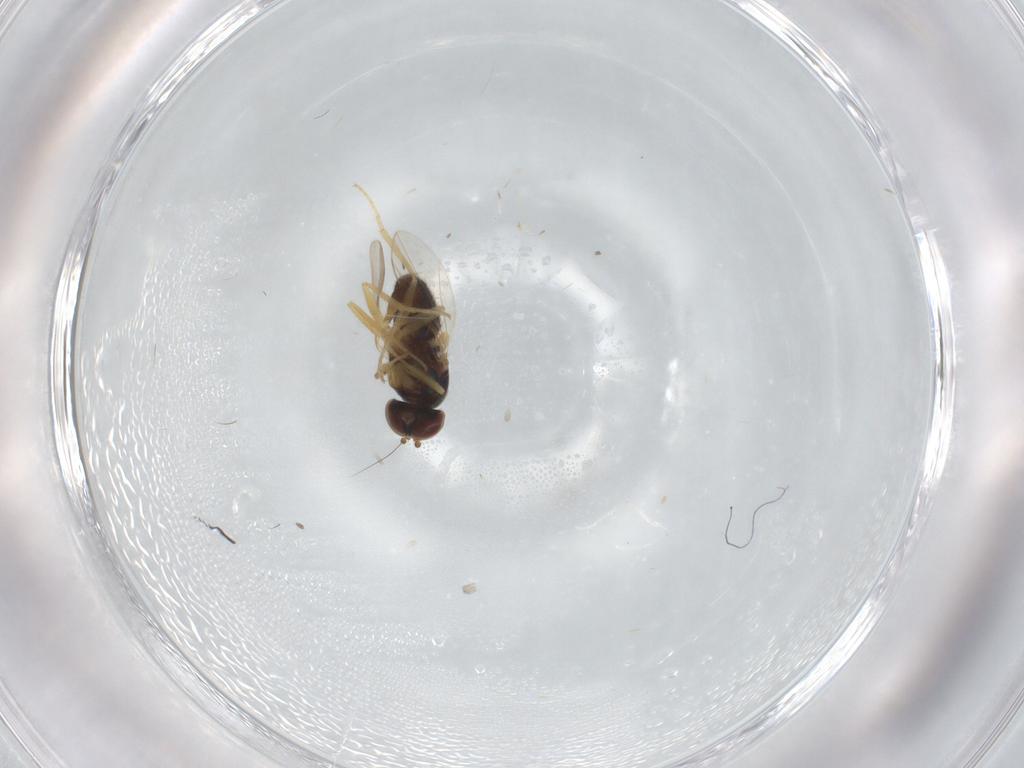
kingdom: Animalia
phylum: Arthropoda
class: Insecta
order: Diptera
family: Dolichopodidae
